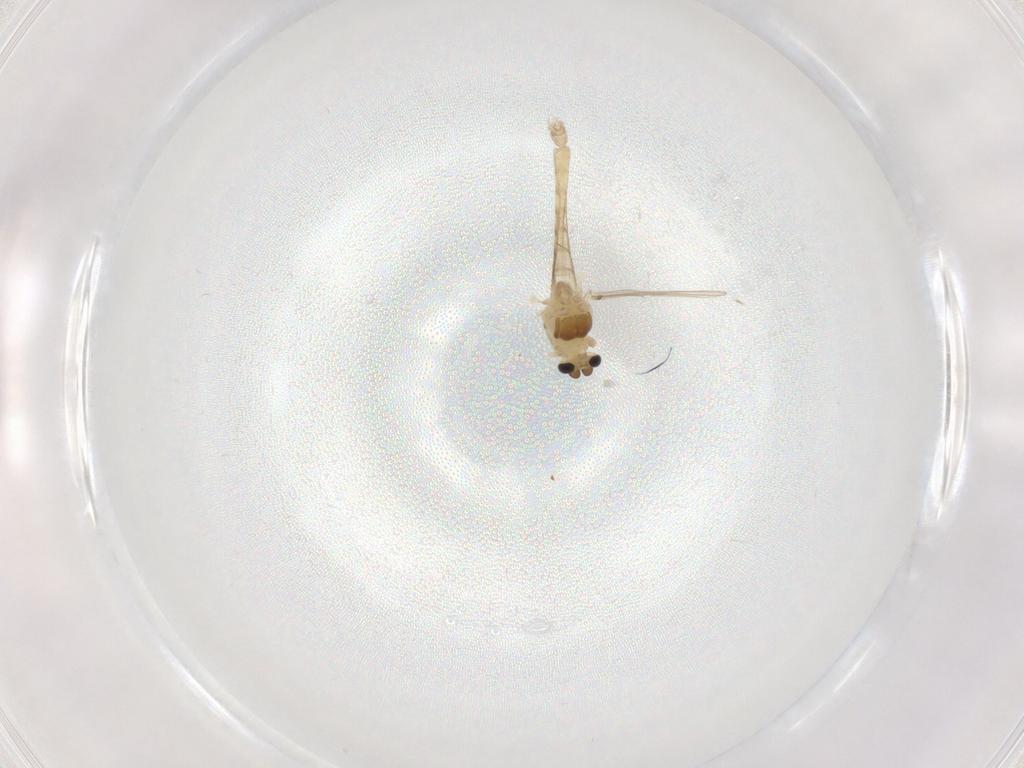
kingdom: Animalia
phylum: Arthropoda
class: Insecta
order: Diptera
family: Chironomidae
